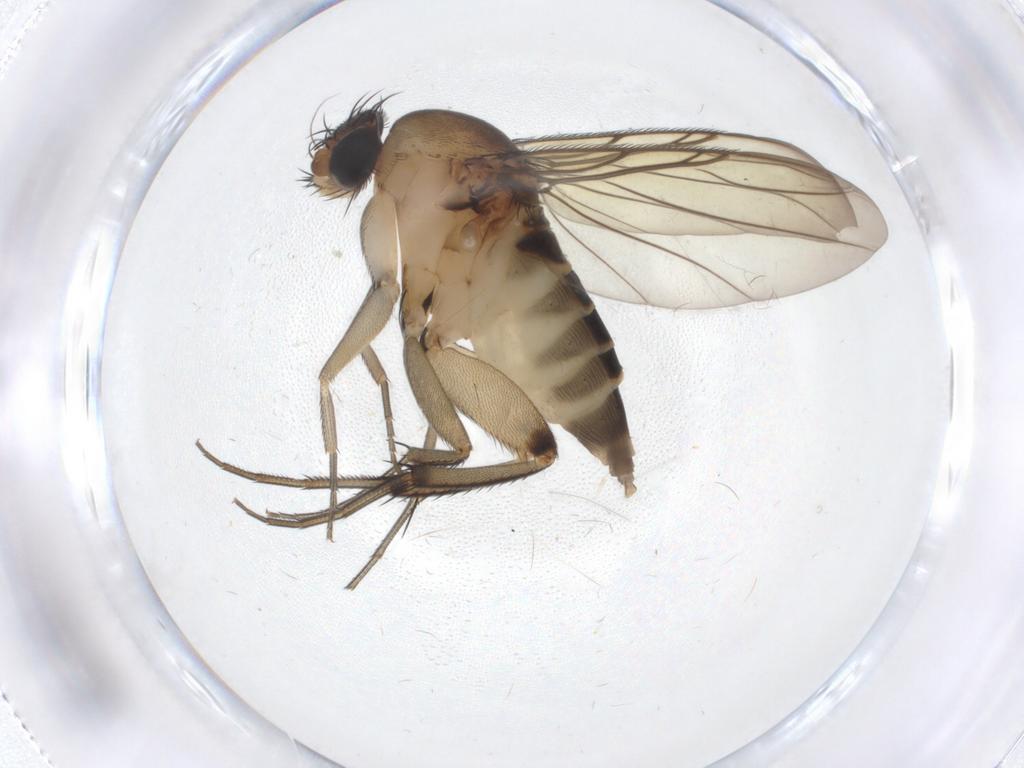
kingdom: Animalia
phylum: Arthropoda
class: Insecta
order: Diptera
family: Phoridae
